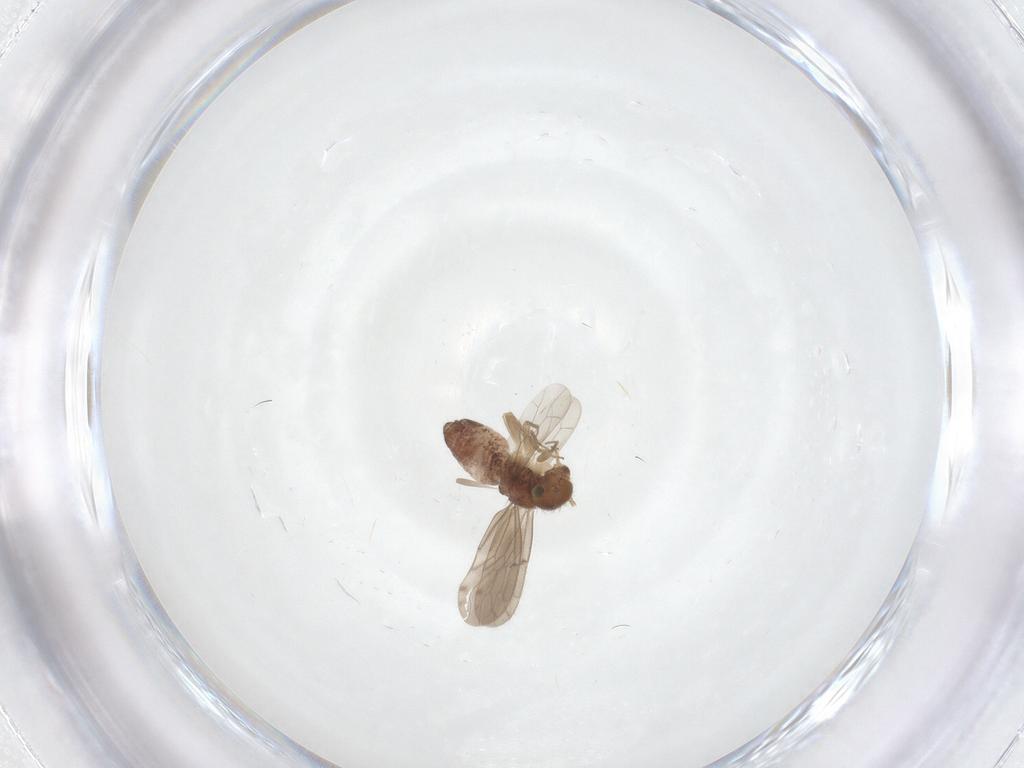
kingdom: Animalia
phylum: Arthropoda
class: Insecta
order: Psocodea
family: Ectopsocidae
